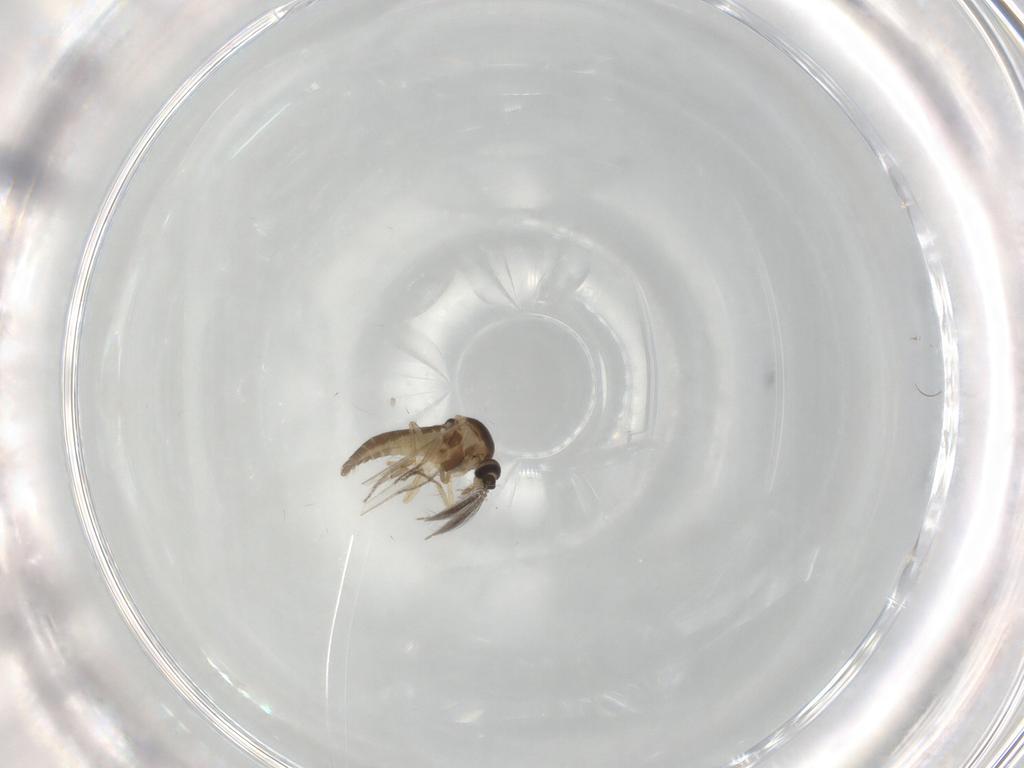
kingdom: Animalia
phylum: Arthropoda
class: Insecta
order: Diptera
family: Ceratopogonidae
